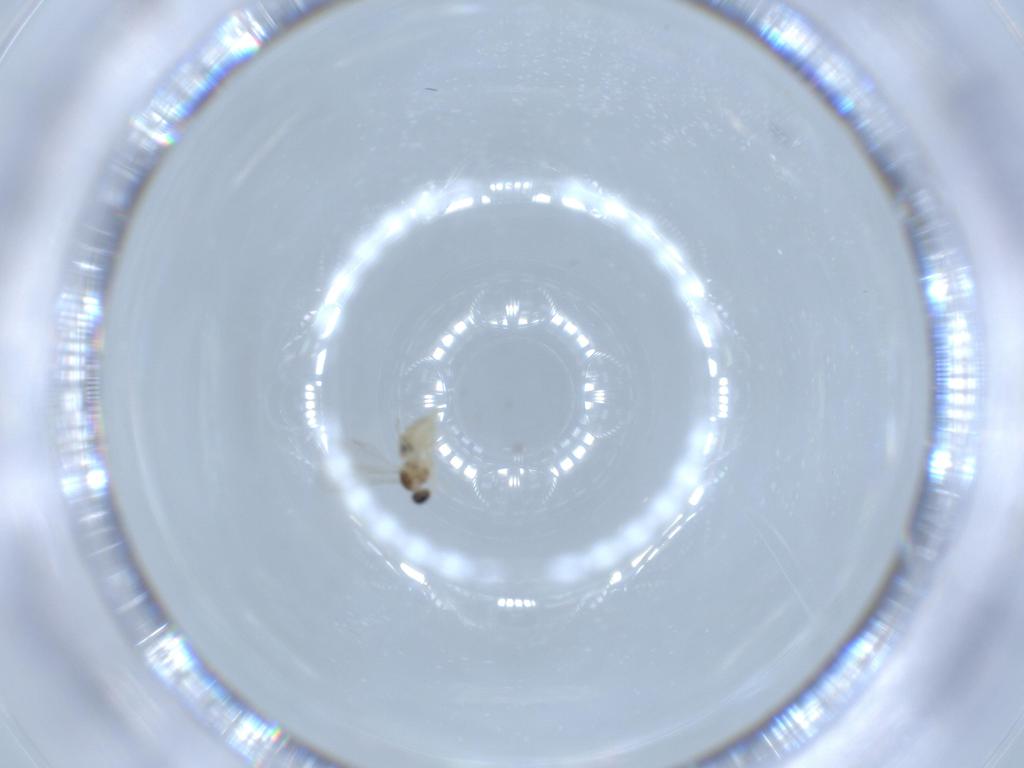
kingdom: Animalia
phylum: Arthropoda
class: Insecta
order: Diptera
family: Cecidomyiidae
